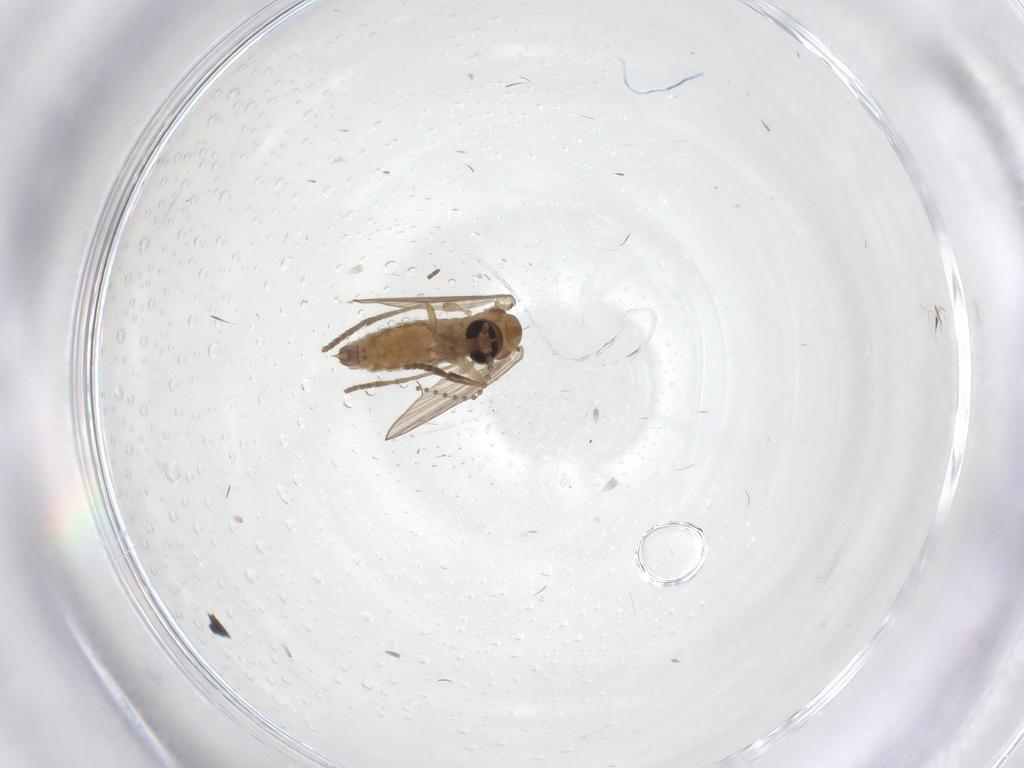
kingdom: Animalia
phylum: Arthropoda
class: Insecta
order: Diptera
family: Psychodidae
